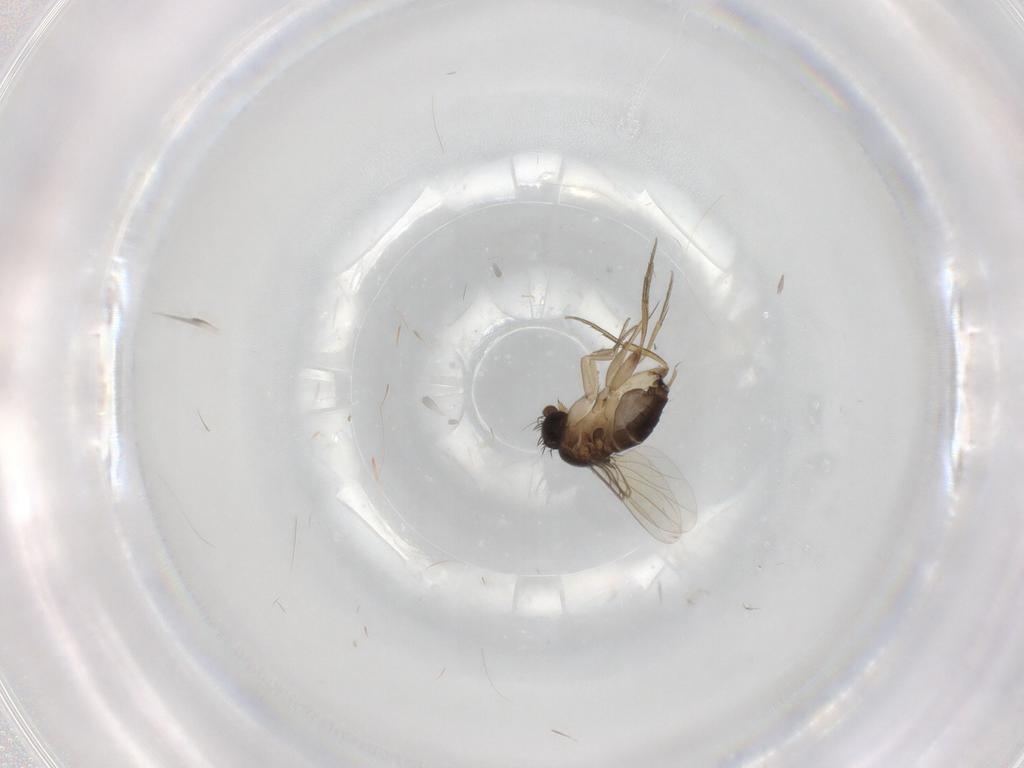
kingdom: Animalia
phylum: Arthropoda
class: Insecta
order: Diptera
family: Phoridae
